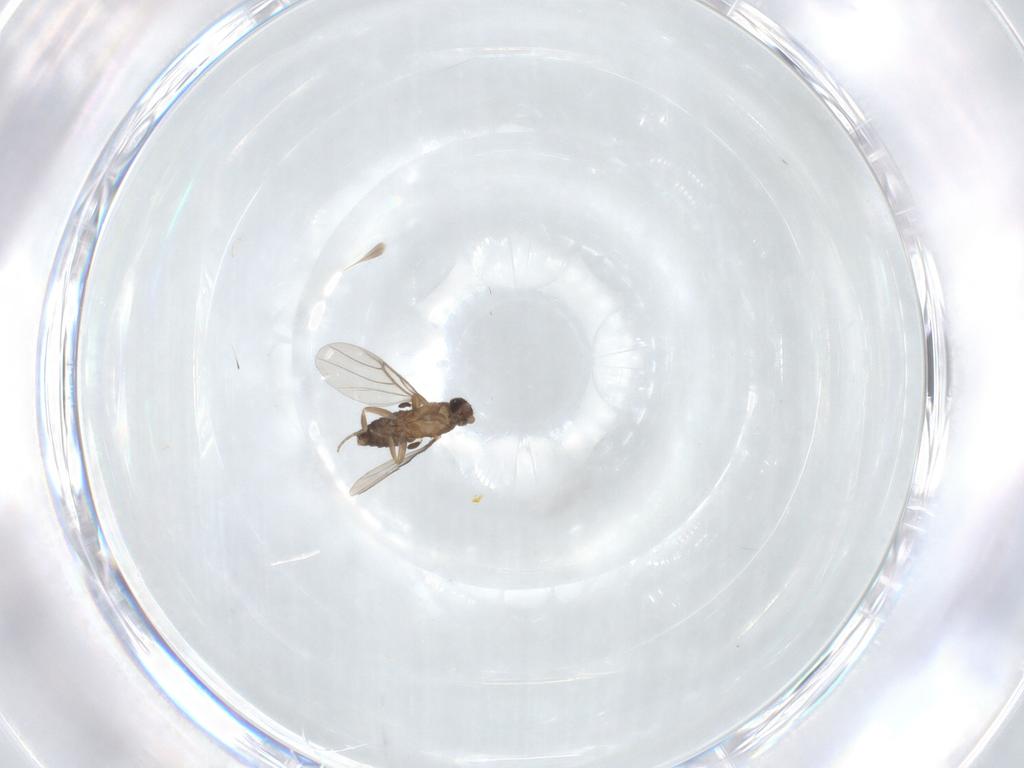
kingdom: Animalia
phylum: Arthropoda
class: Insecta
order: Diptera
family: Phoridae
